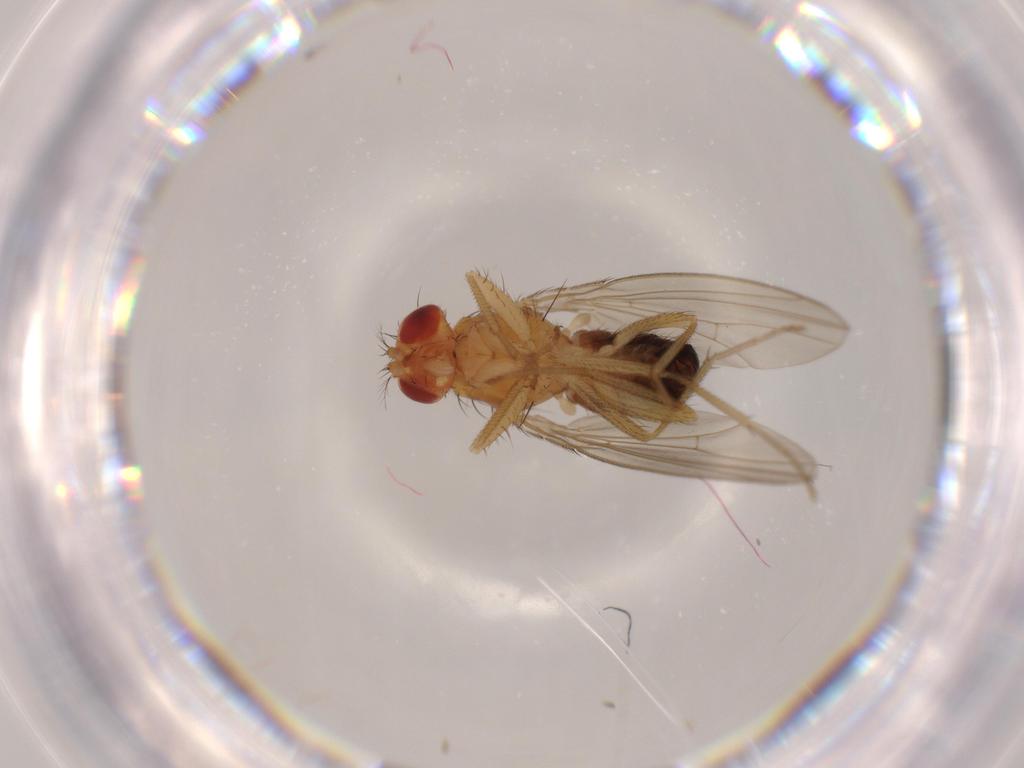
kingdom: Animalia
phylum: Arthropoda
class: Insecta
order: Diptera
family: Drosophilidae
